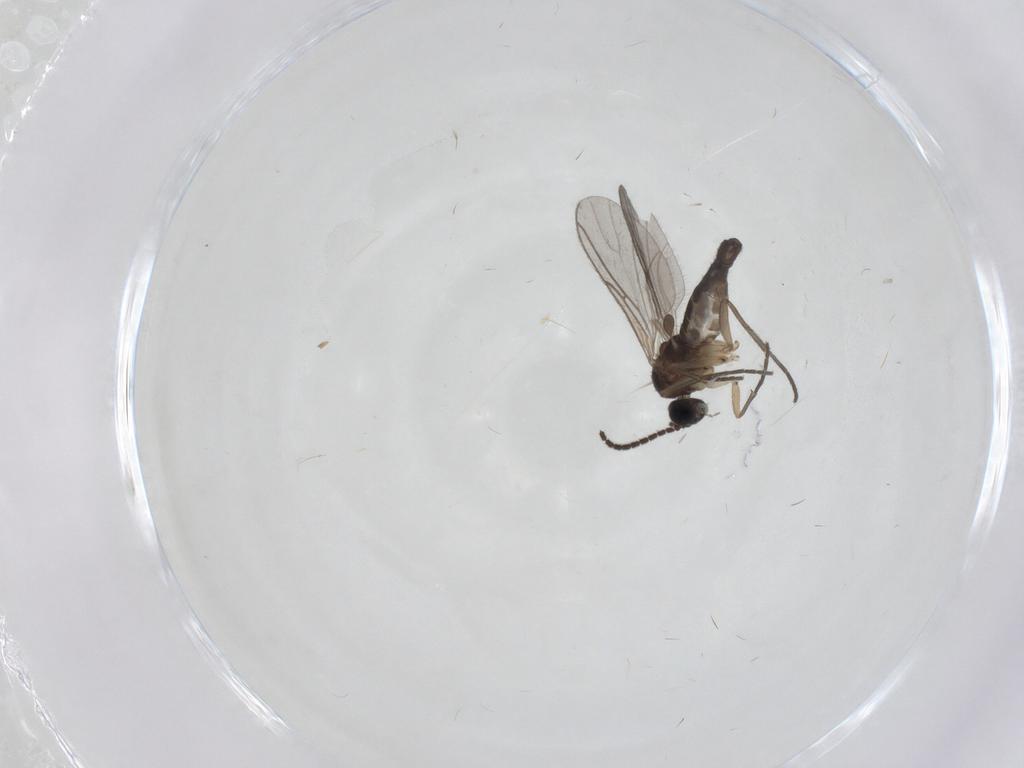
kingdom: Animalia
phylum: Arthropoda
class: Insecta
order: Diptera
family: Sciaridae
